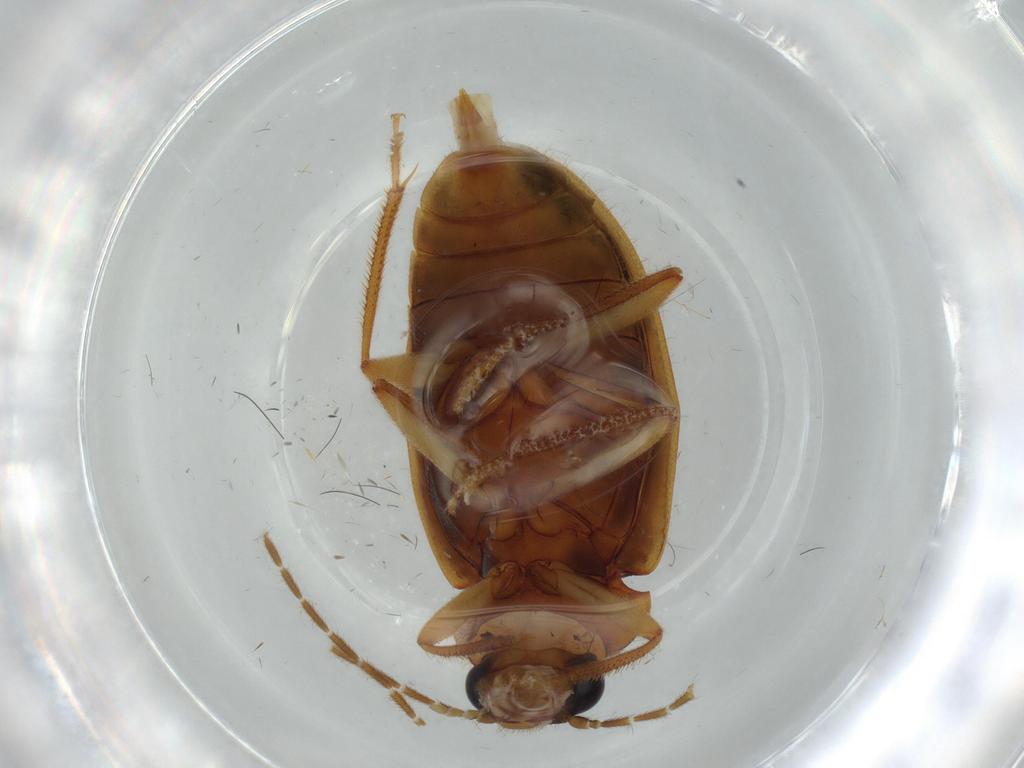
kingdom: Animalia
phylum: Arthropoda
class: Insecta
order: Coleoptera
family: Ptilodactylidae
